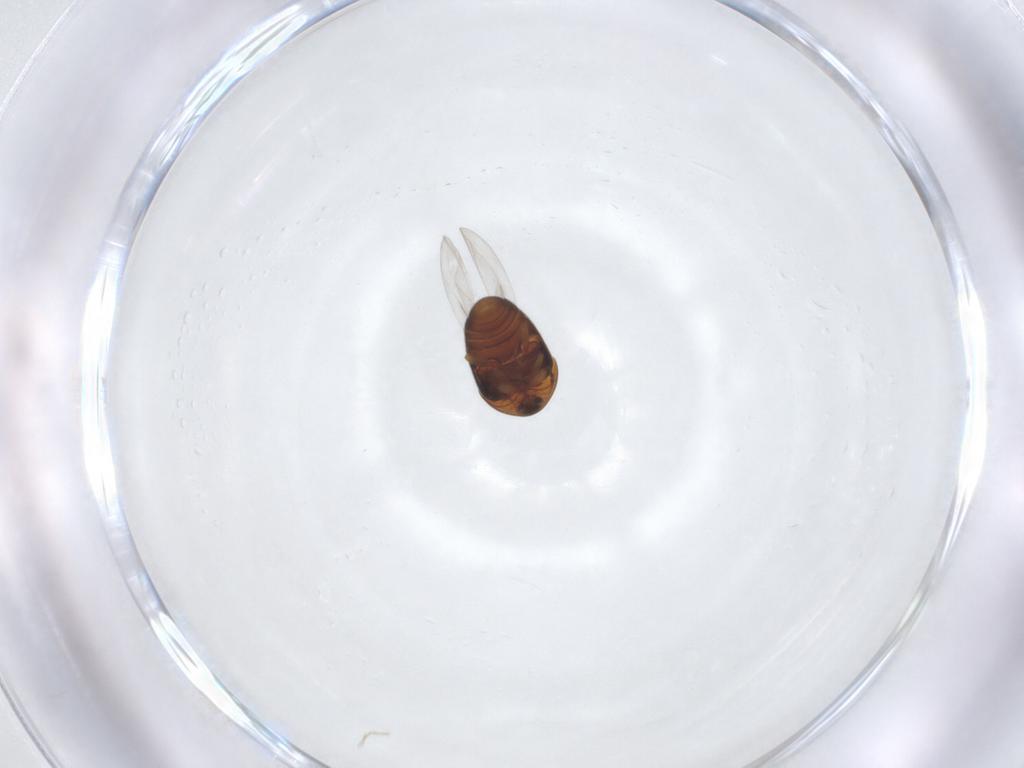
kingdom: Animalia
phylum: Arthropoda
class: Insecta
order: Coleoptera
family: Corylophidae
